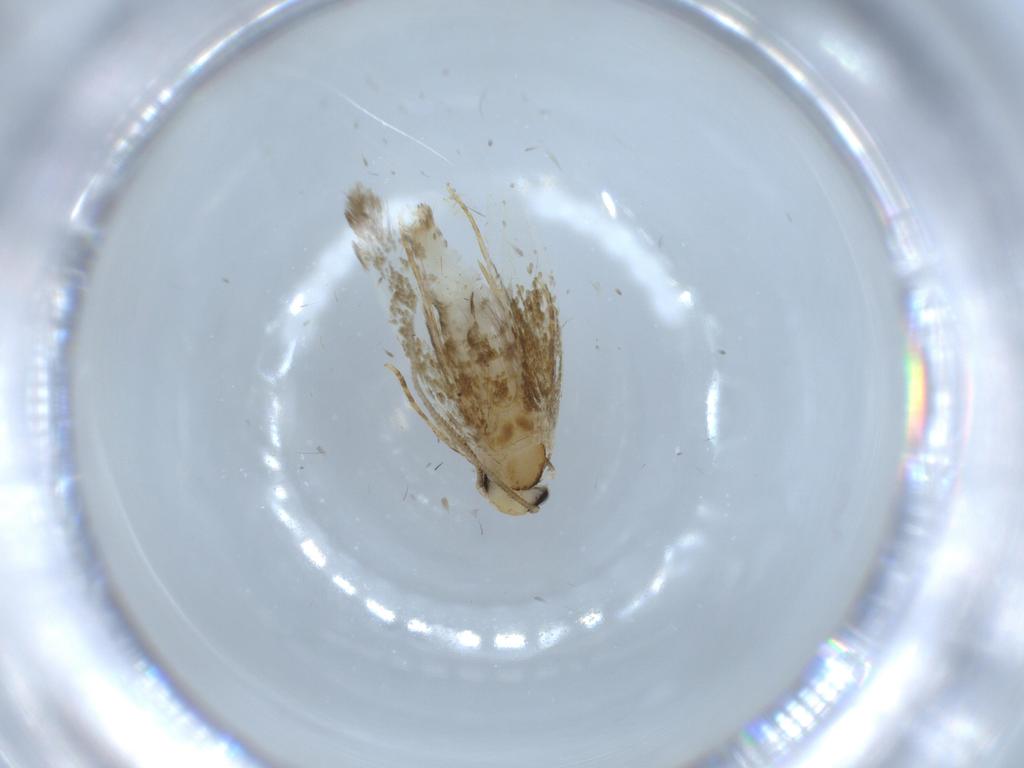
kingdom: Animalia
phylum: Arthropoda
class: Insecta
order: Lepidoptera
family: Tineidae
